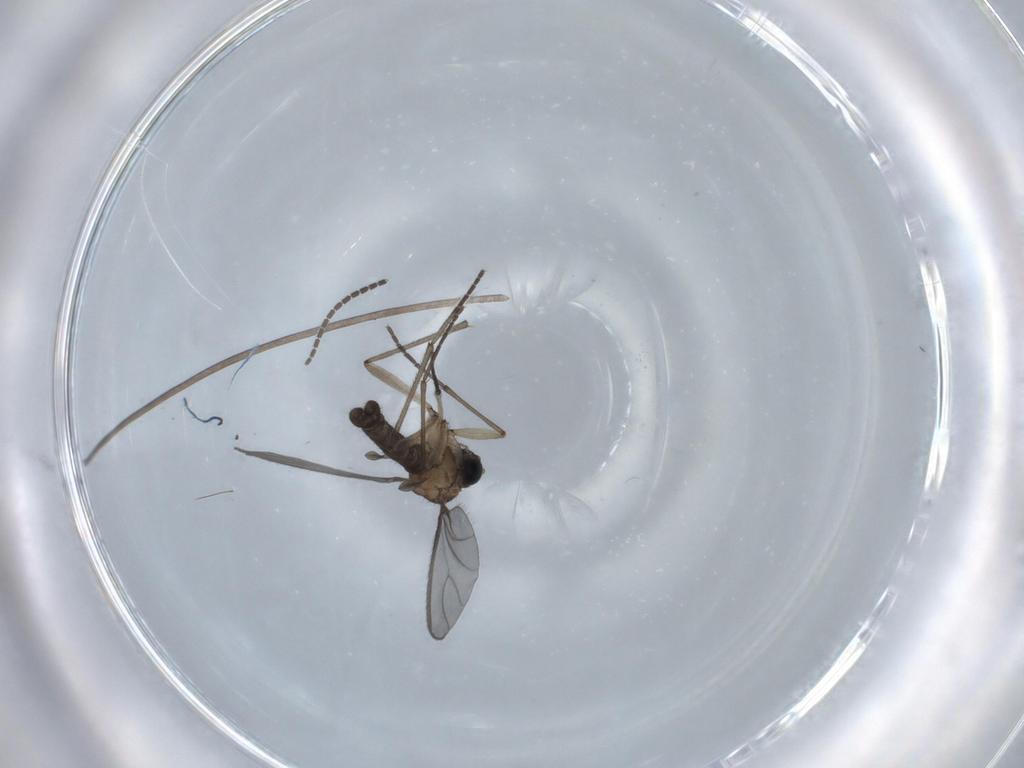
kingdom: Animalia
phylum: Arthropoda
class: Insecta
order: Diptera
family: Sciaridae
